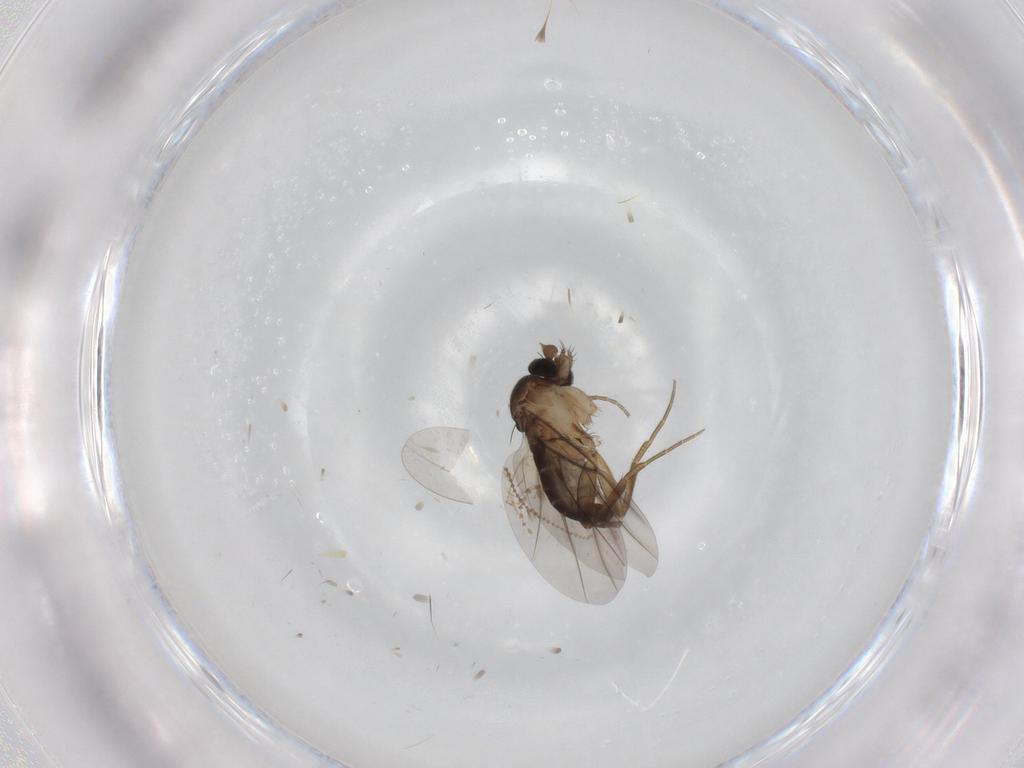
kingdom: Animalia
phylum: Arthropoda
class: Insecta
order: Diptera
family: Phoridae
